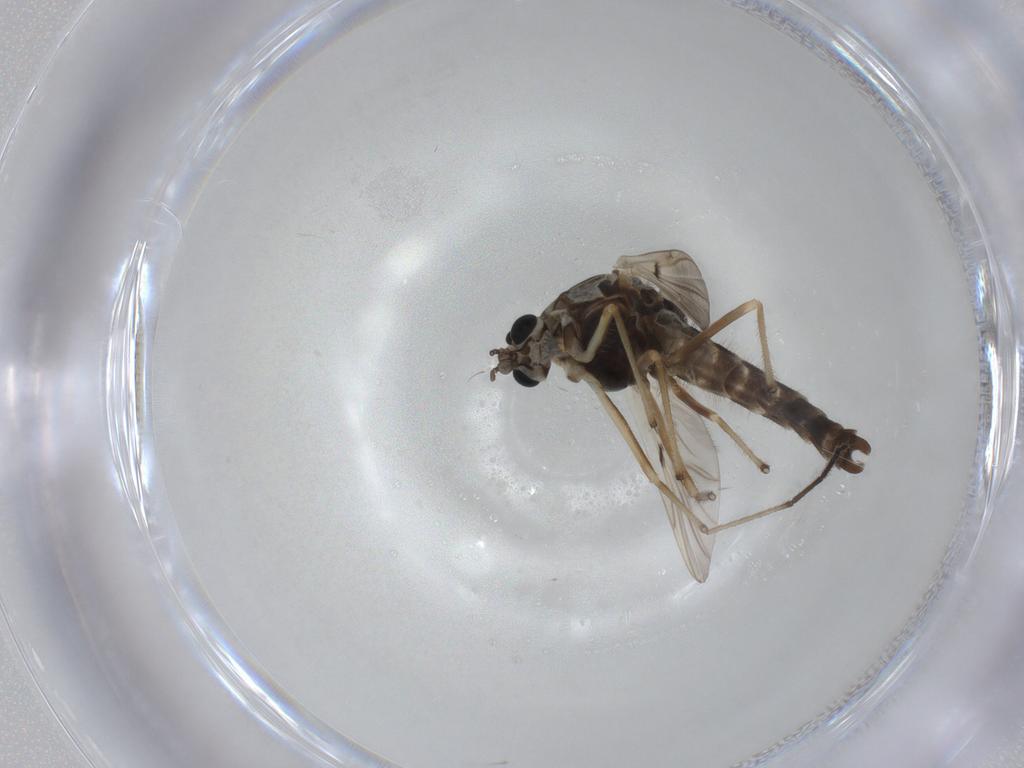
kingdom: Animalia
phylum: Arthropoda
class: Insecta
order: Diptera
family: Chironomidae
